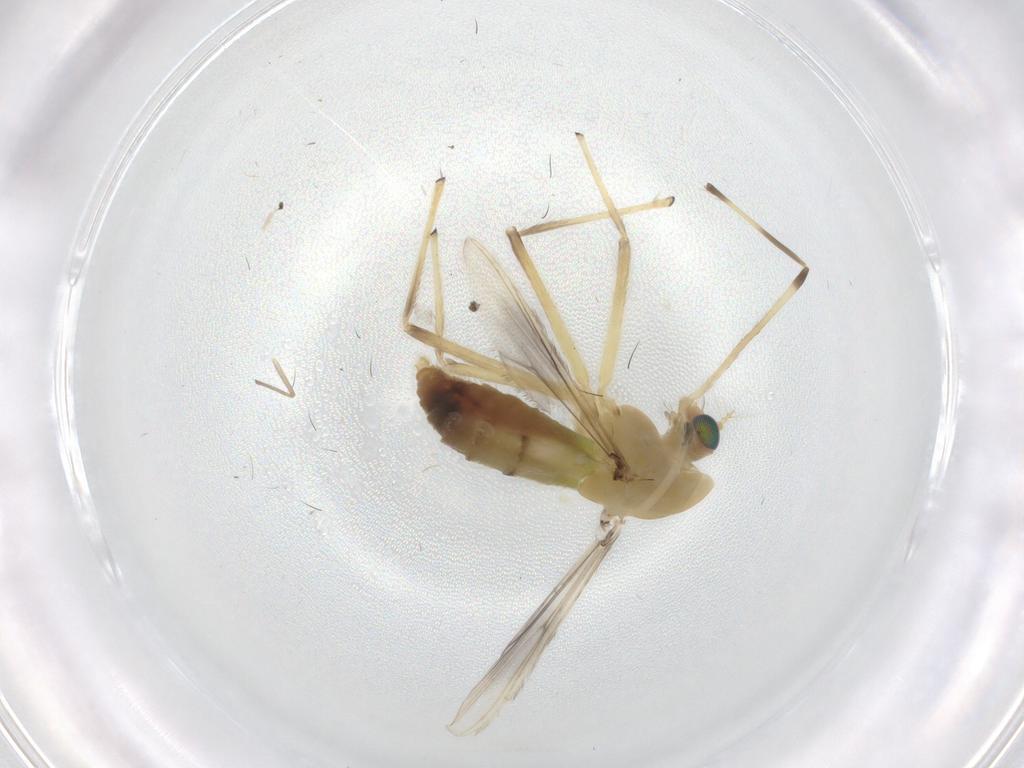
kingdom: Animalia
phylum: Arthropoda
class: Insecta
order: Diptera
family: Chironomidae
